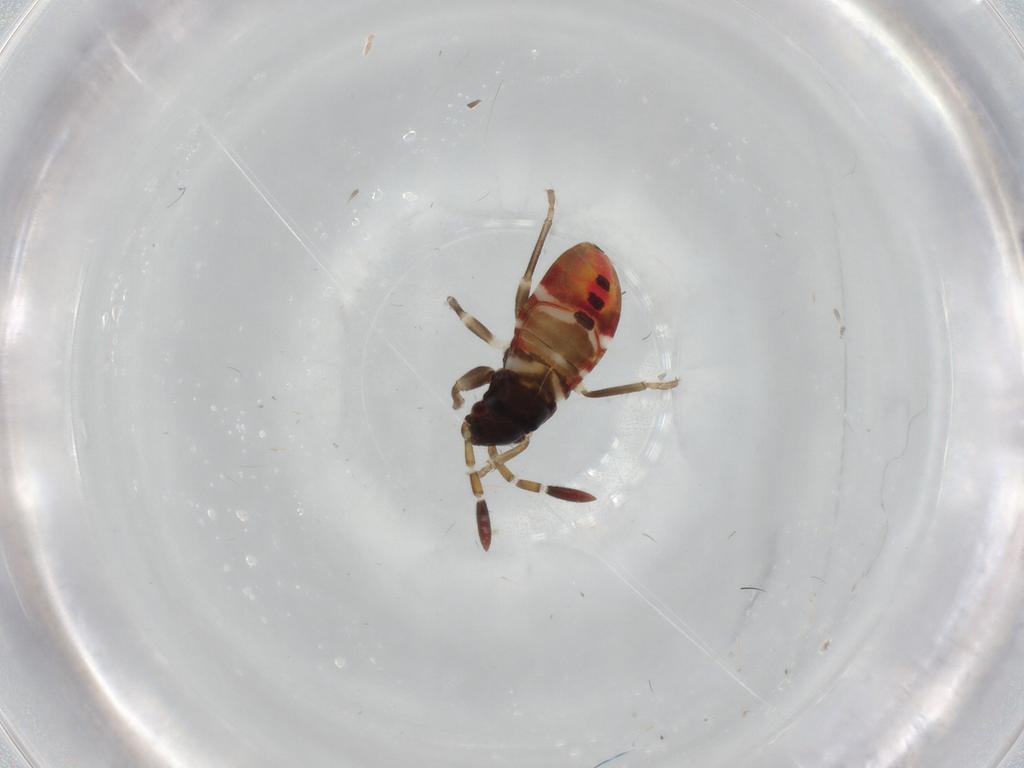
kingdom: Animalia
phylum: Arthropoda
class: Insecta
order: Hemiptera
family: Rhyparochromidae
